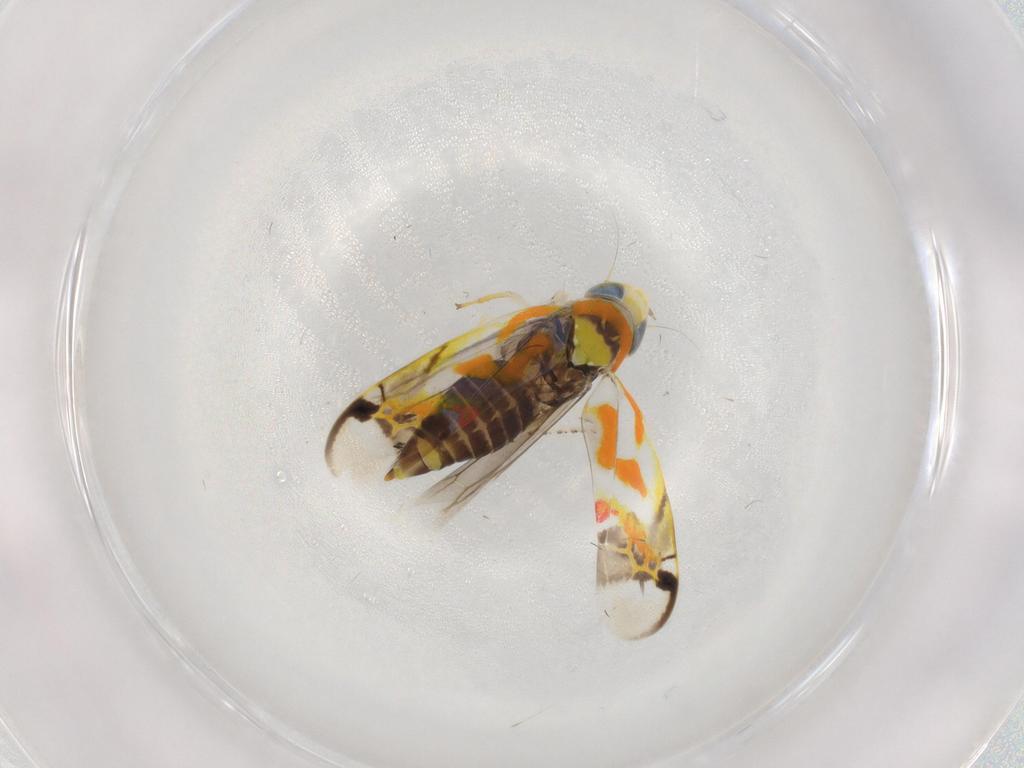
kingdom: Animalia
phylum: Arthropoda
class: Insecta
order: Hemiptera
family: Cicadellidae
